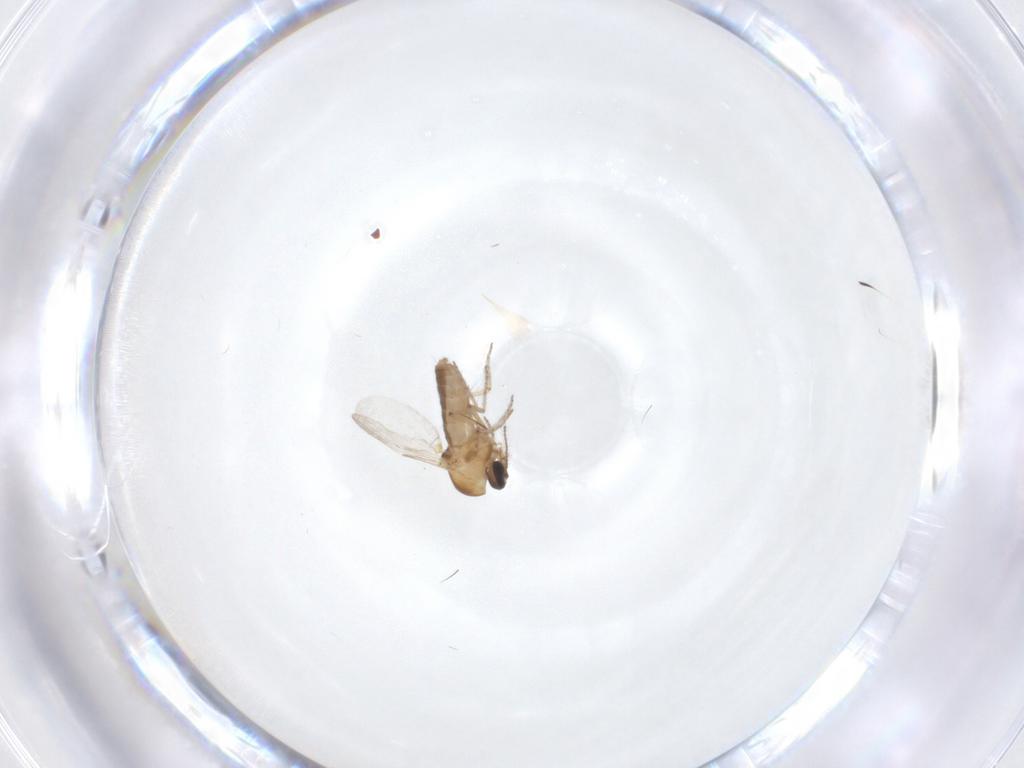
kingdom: Animalia
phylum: Arthropoda
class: Insecta
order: Diptera
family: Ceratopogonidae
